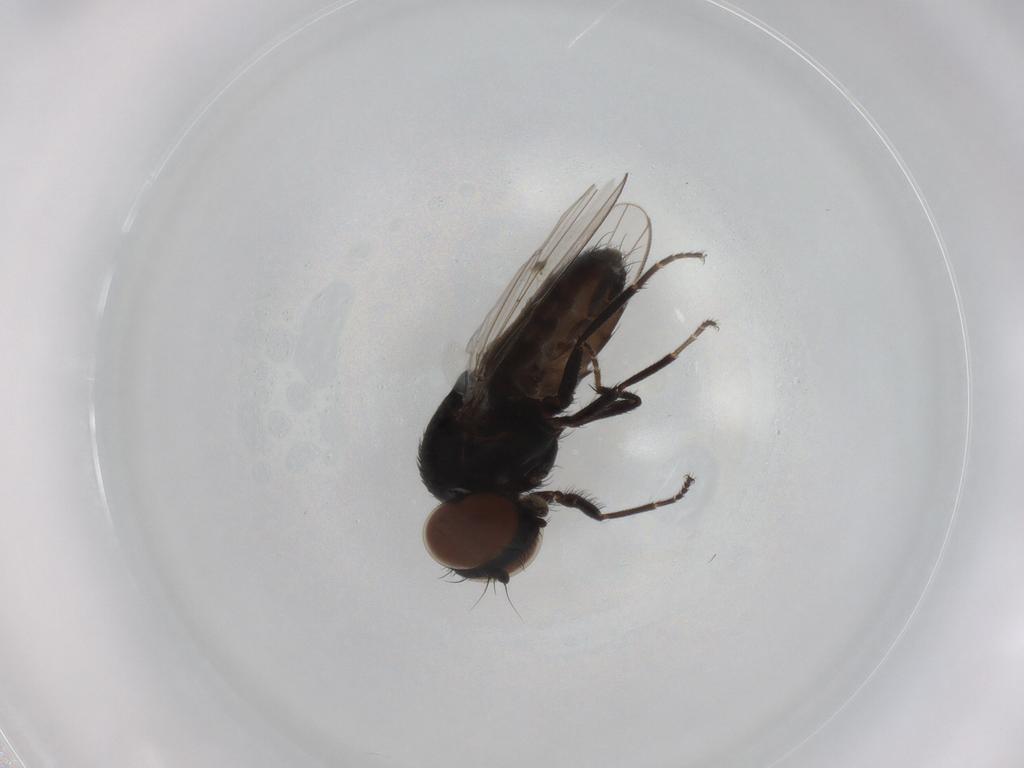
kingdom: Animalia
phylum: Arthropoda
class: Insecta
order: Diptera
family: Milichiidae
